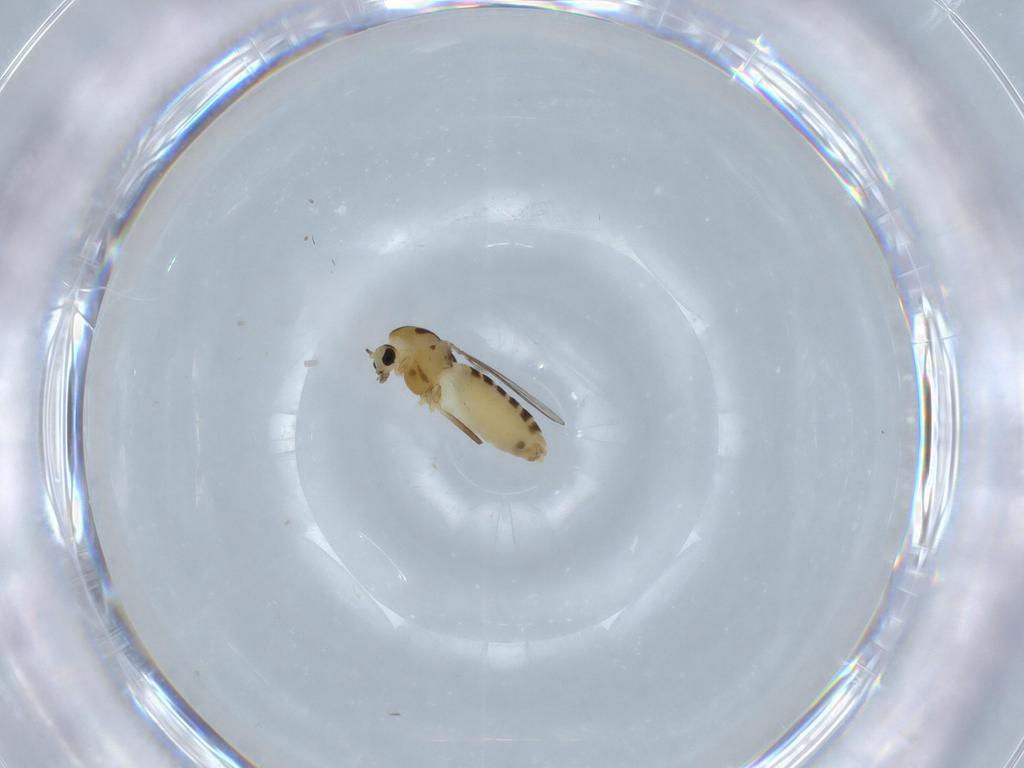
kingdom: Animalia
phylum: Arthropoda
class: Insecta
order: Diptera
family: Chironomidae
